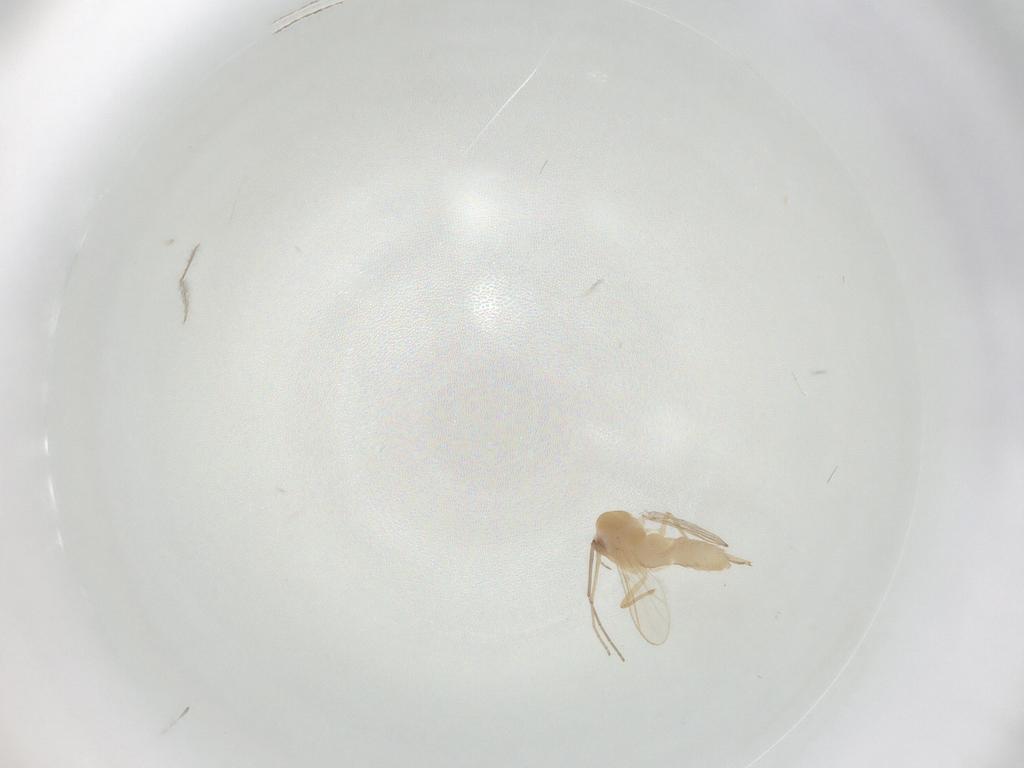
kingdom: Animalia
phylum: Arthropoda
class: Insecta
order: Diptera
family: Chironomidae
